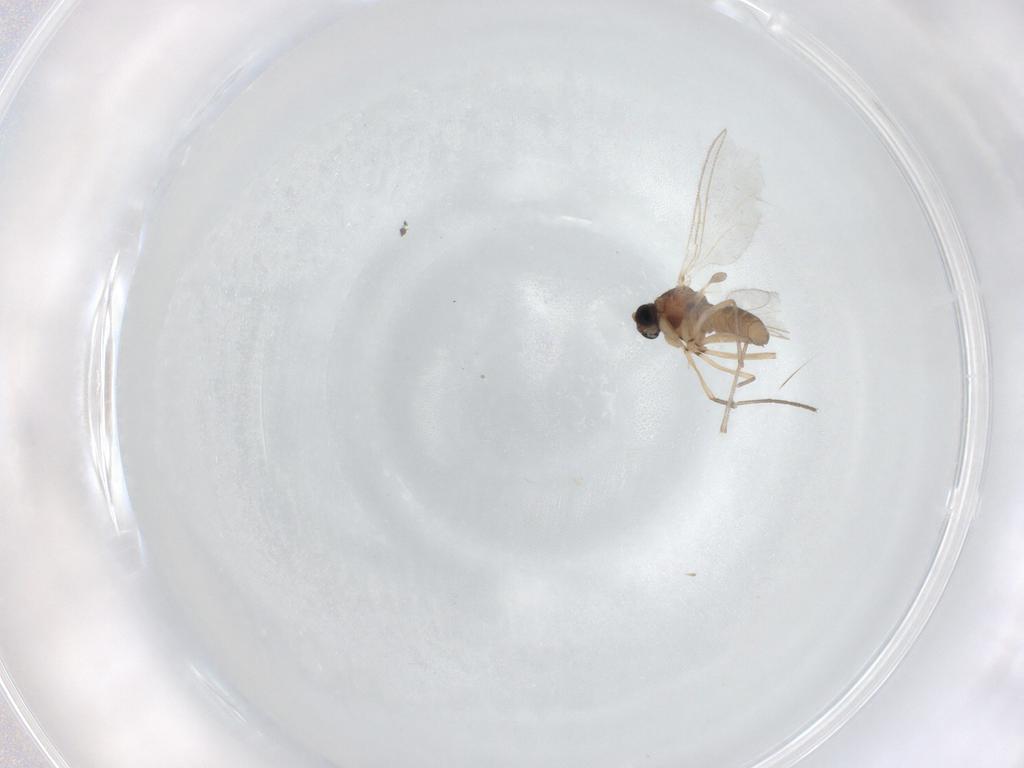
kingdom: Animalia
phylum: Arthropoda
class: Insecta
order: Diptera
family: Sciaridae
